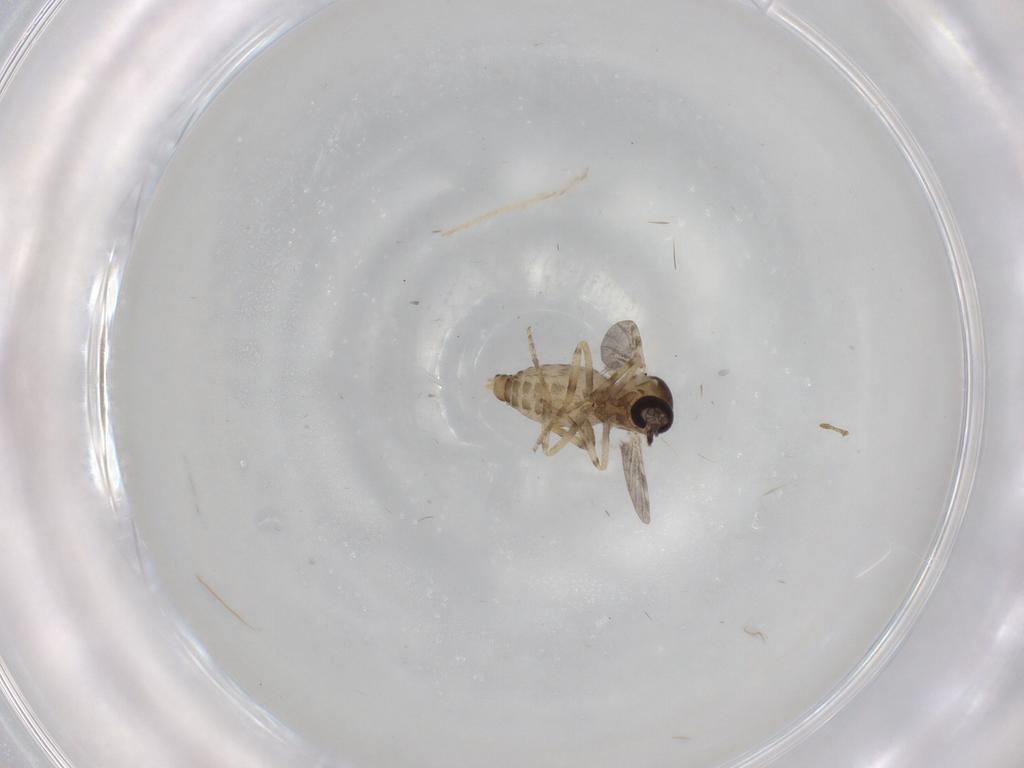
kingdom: Animalia
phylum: Arthropoda
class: Insecta
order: Diptera
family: Ceratopogonidae
